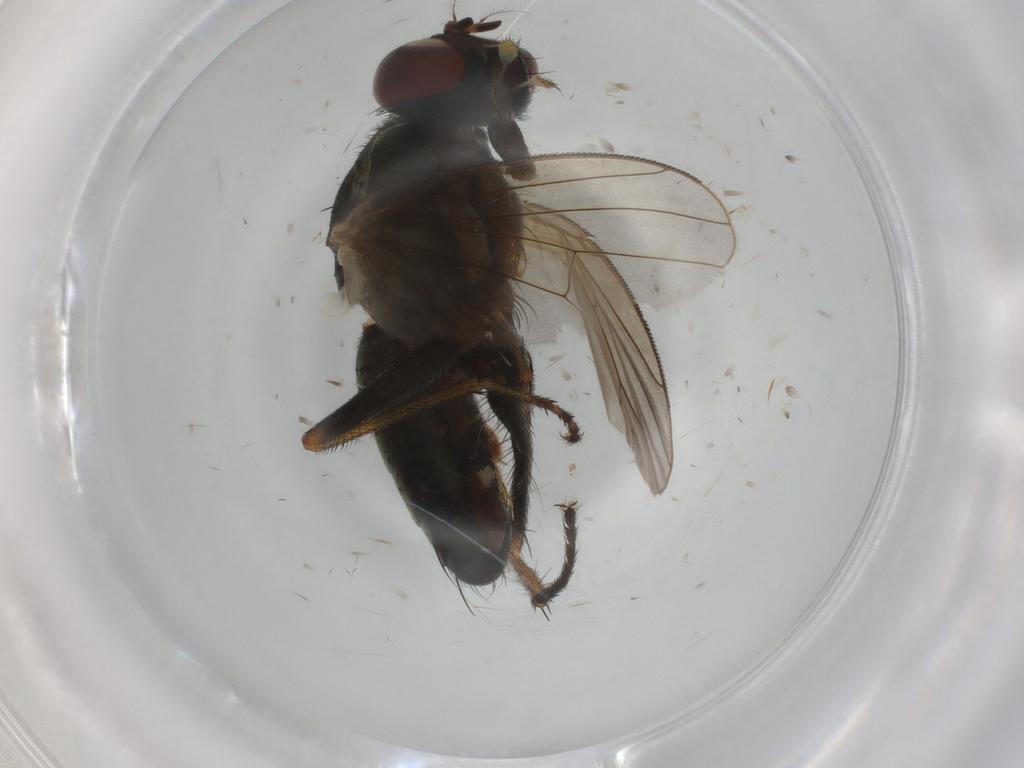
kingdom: Animalia
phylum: Arthropoda
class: Insecta
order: Diptera
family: Muscidae
